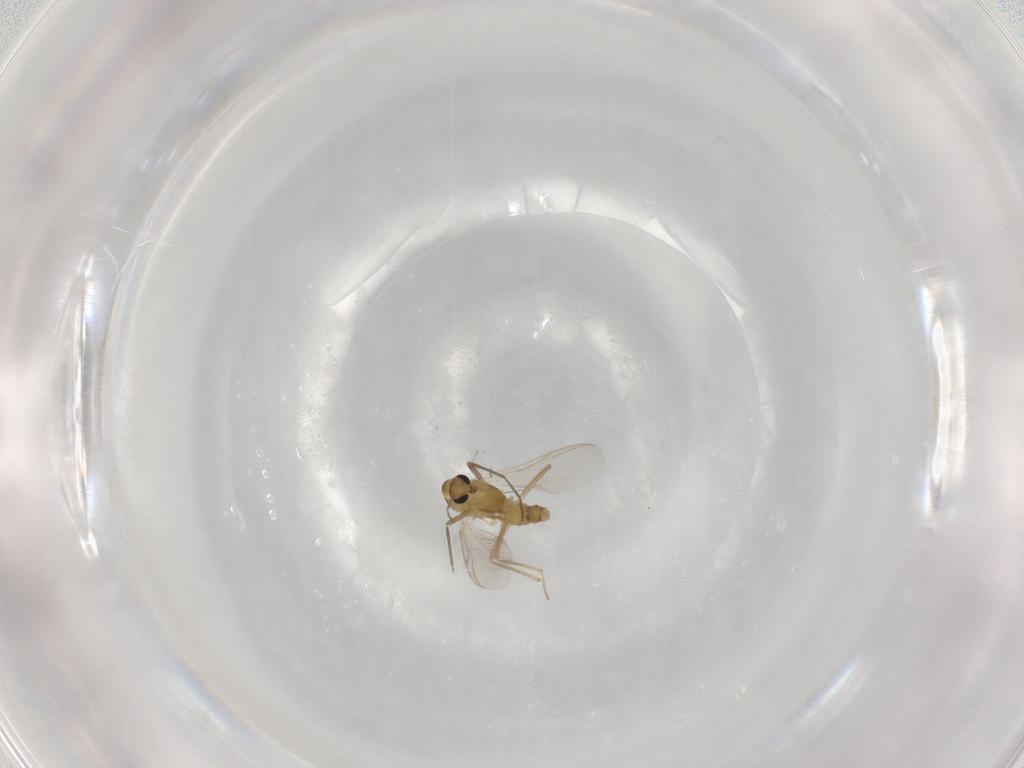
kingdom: Animalia
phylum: Arthropoda
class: Insecta
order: Diptera
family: Chironomidae
